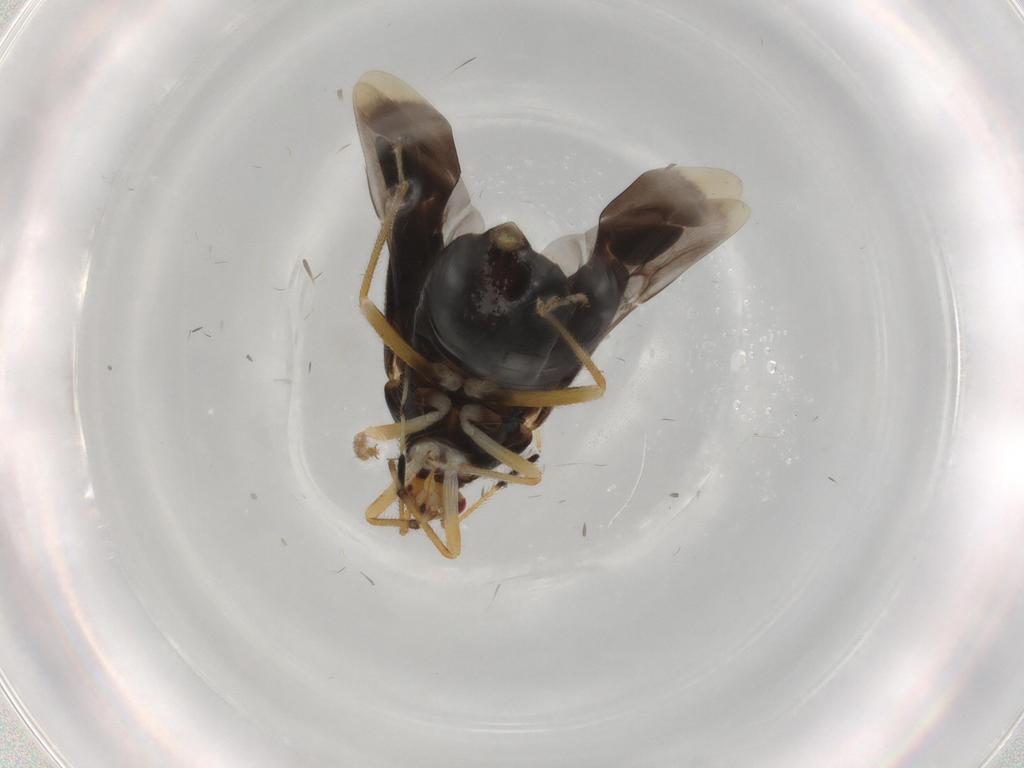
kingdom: Animalia
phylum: Arthropoda
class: Insecta
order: Hemiptera
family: Miridae
